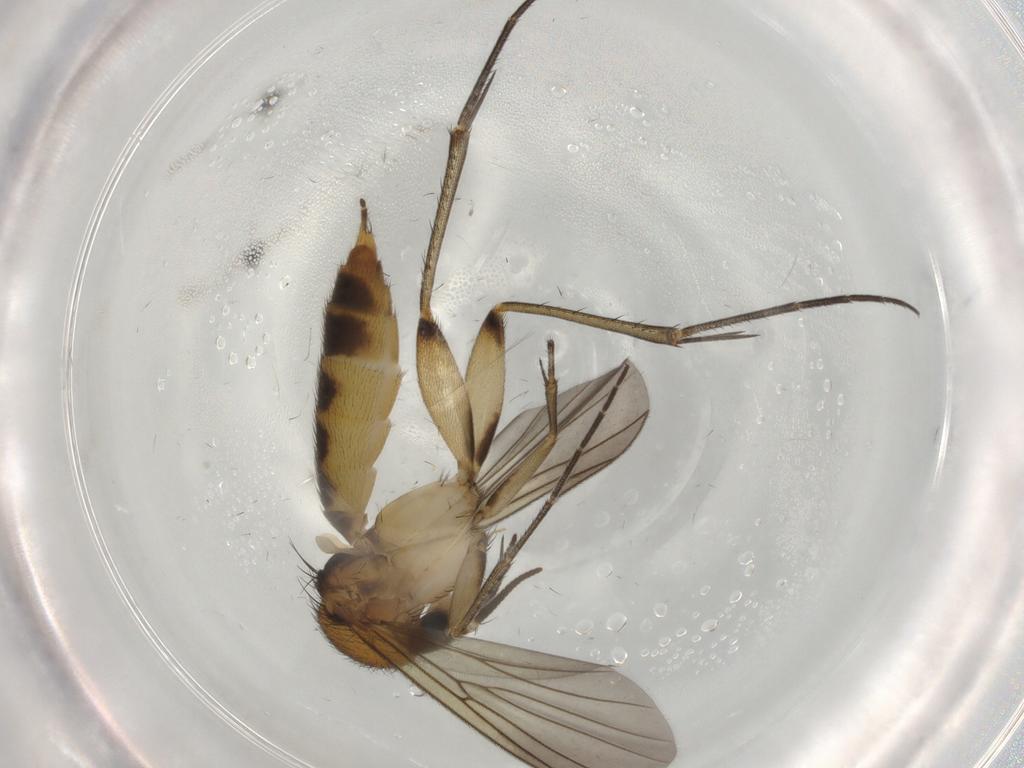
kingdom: Animalia
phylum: Arthropoda
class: Insecta
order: Diptera
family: Mycetophilidae
